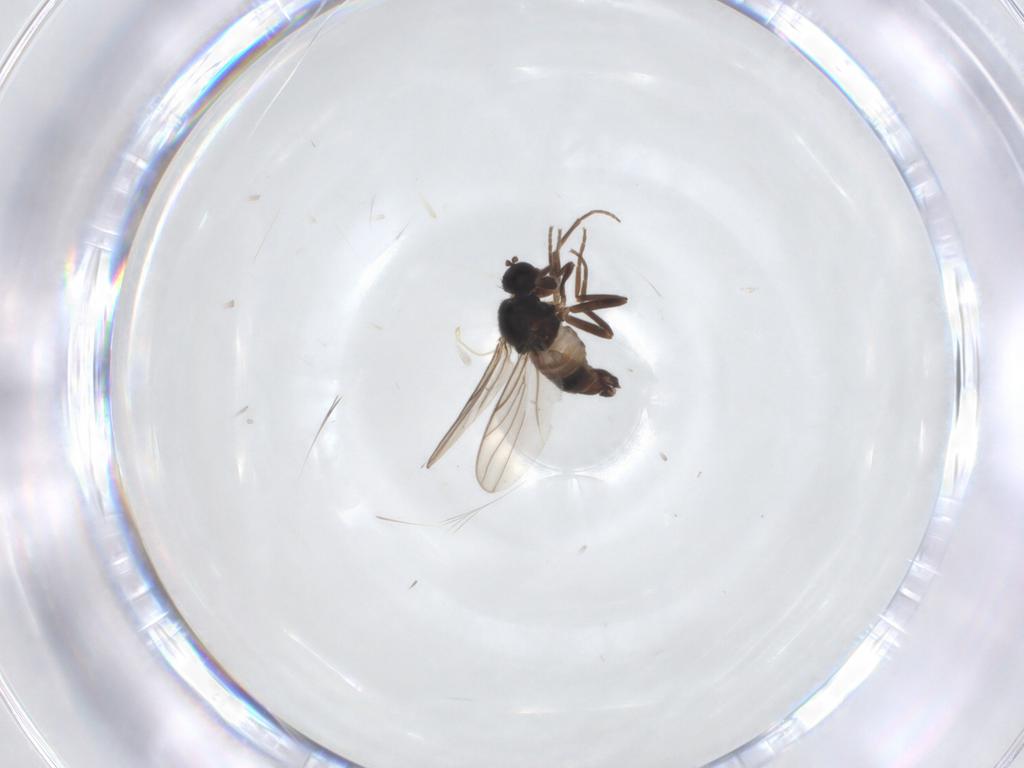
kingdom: Animalia
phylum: Arthropoda
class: Insecta
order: Diptera
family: Hybotidae
